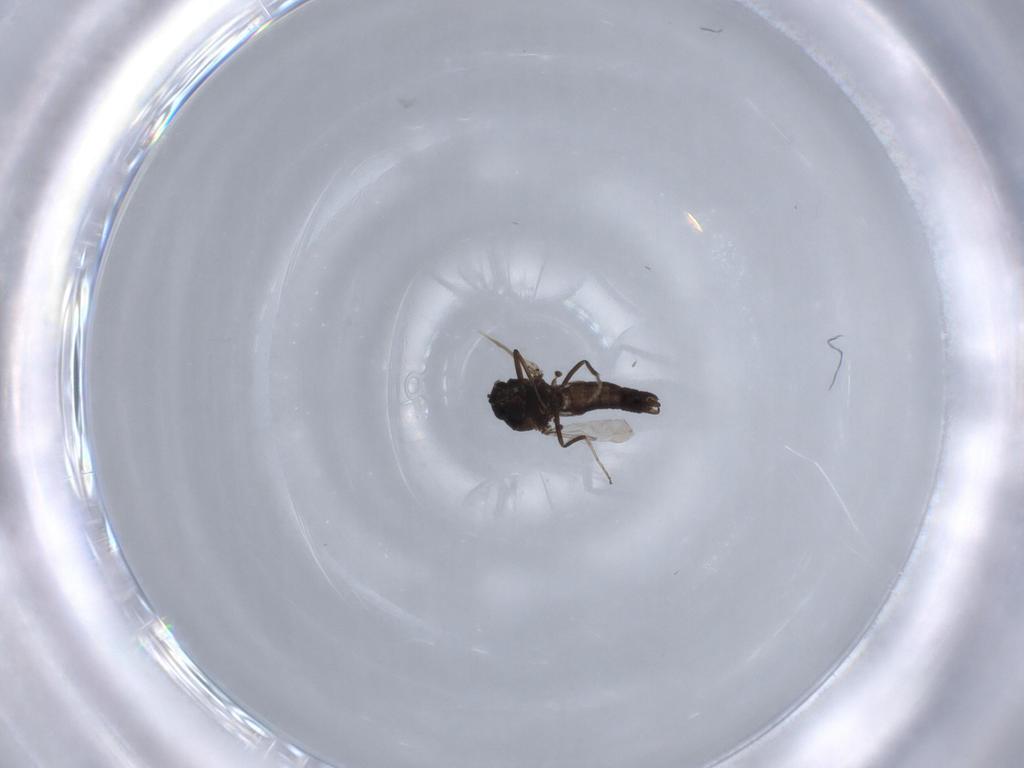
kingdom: Animalia
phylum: Arthropoda
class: Insecta
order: Diptera
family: Ceratopogonidae
